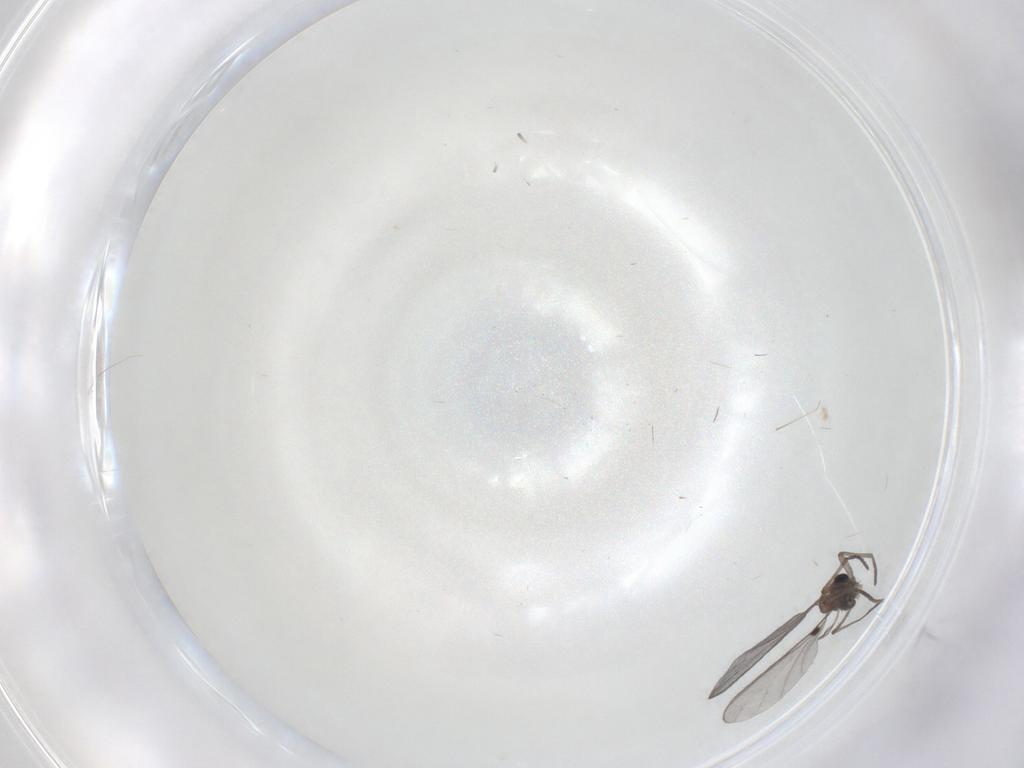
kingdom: Animalia
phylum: Arthropoda
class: Insecta
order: Diptera
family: Sciaridae
